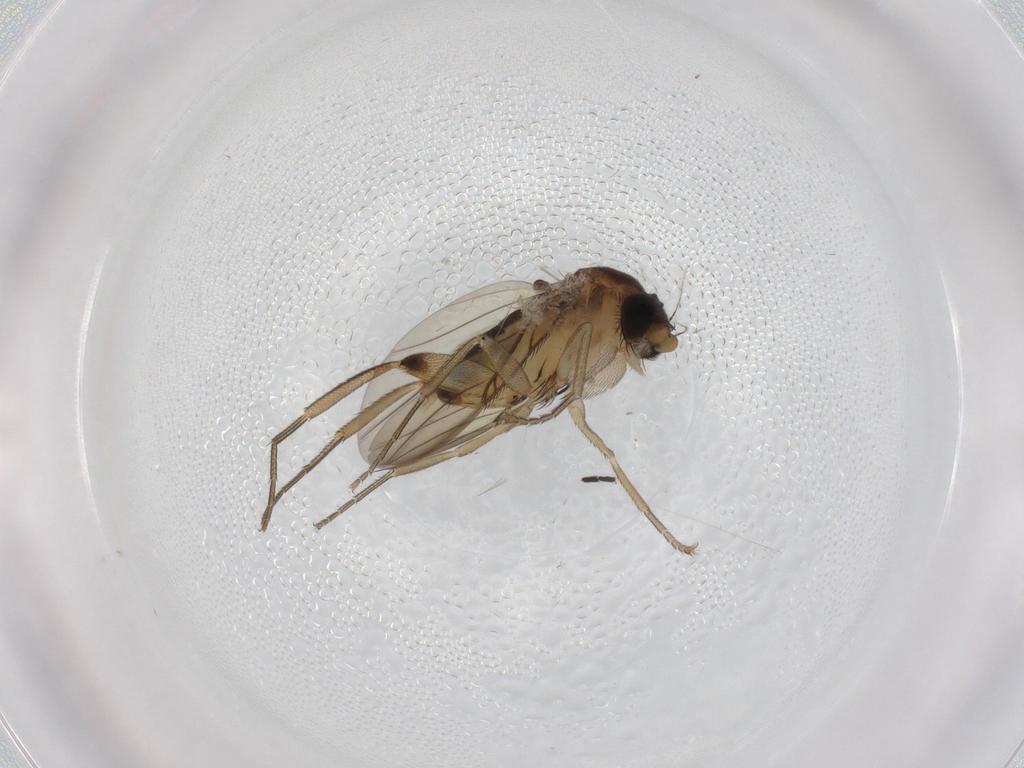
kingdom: Animalia
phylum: Arthropoda
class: Insecta
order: Diptera
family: Phoridae
